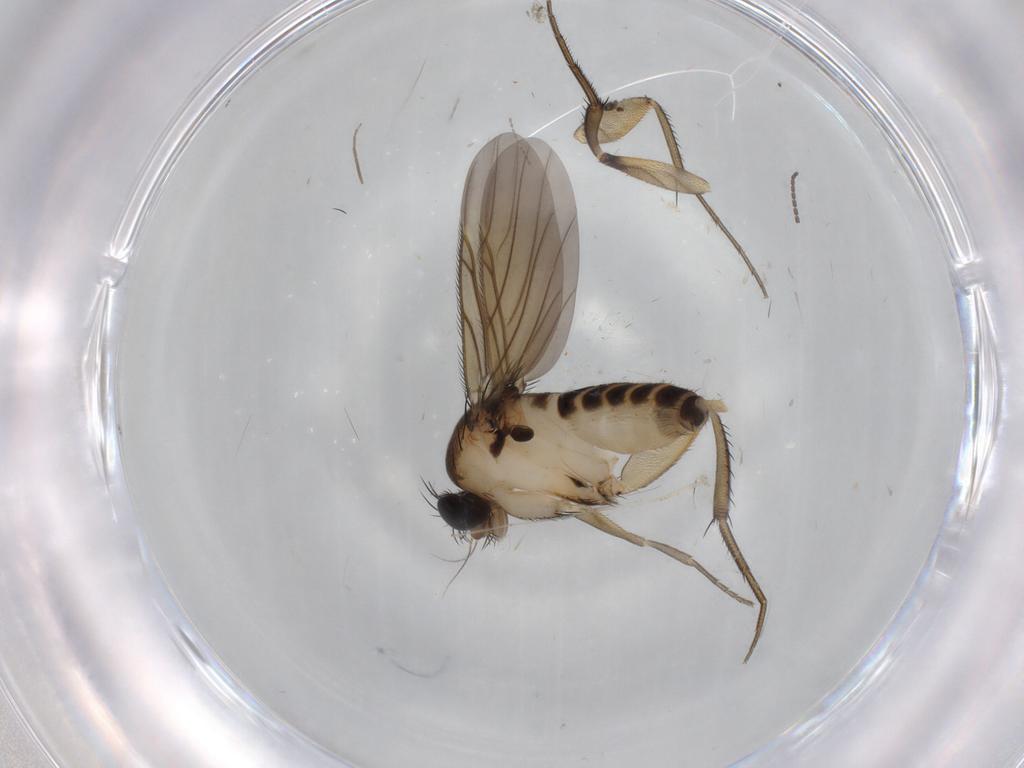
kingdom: Animalia
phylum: Arthropoda
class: Insecta
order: Diptera
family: Phoridae
